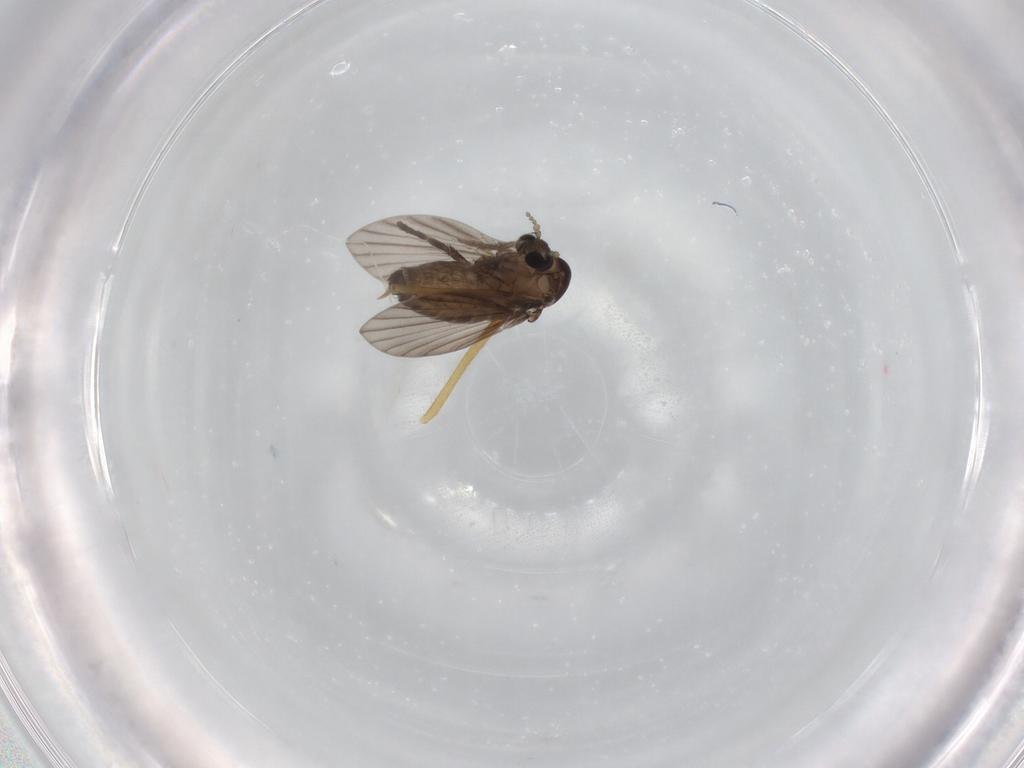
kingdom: Animalia
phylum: Arthropoda
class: Insecta
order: Diptera
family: Psychodidae
